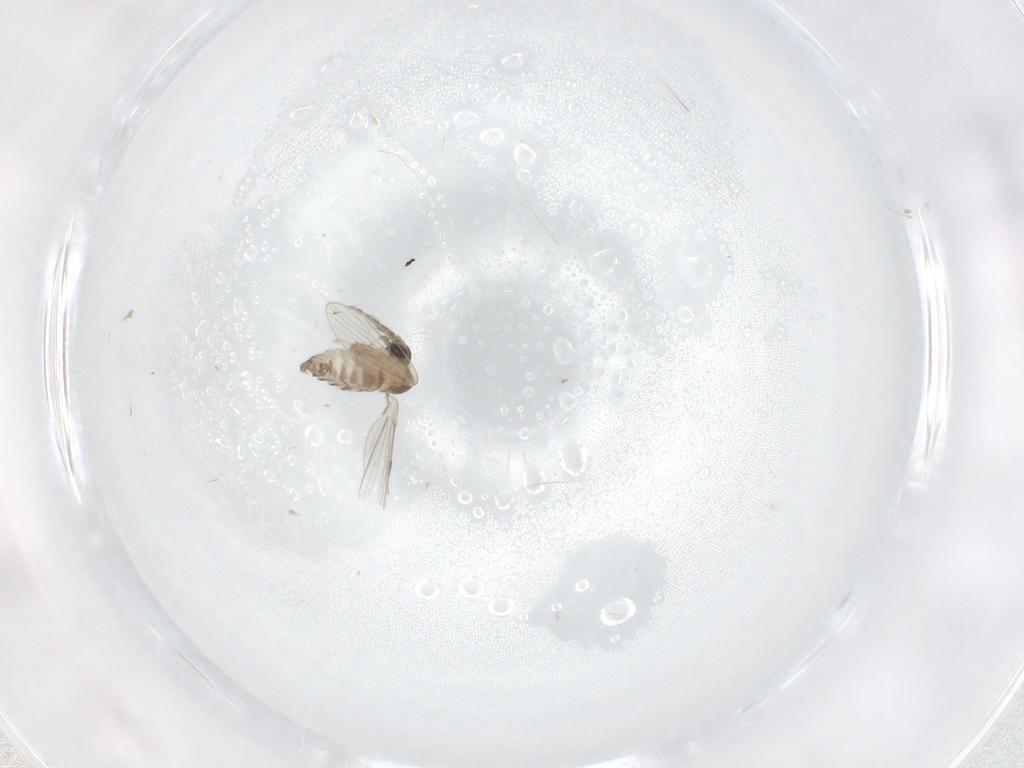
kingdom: Animalia
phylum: Arthropoda
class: Insecta
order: Diptera
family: Psychodidae
